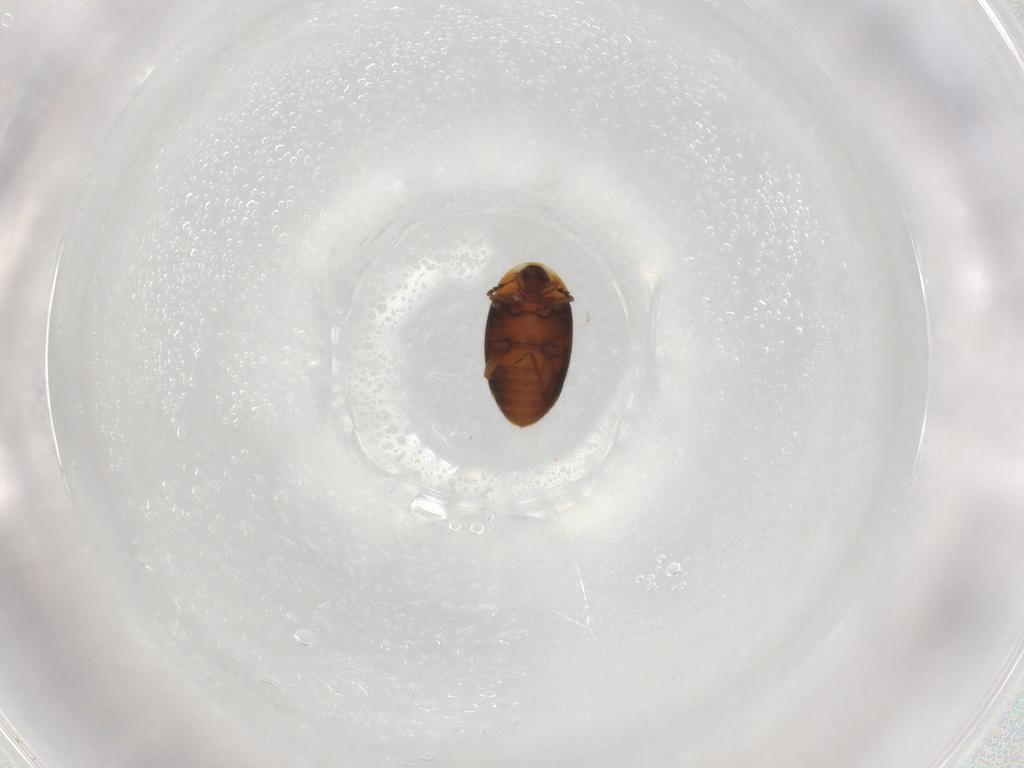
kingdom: Animalia
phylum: Arthropoda
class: Insecta
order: Coleoptera
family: Corylophidae
